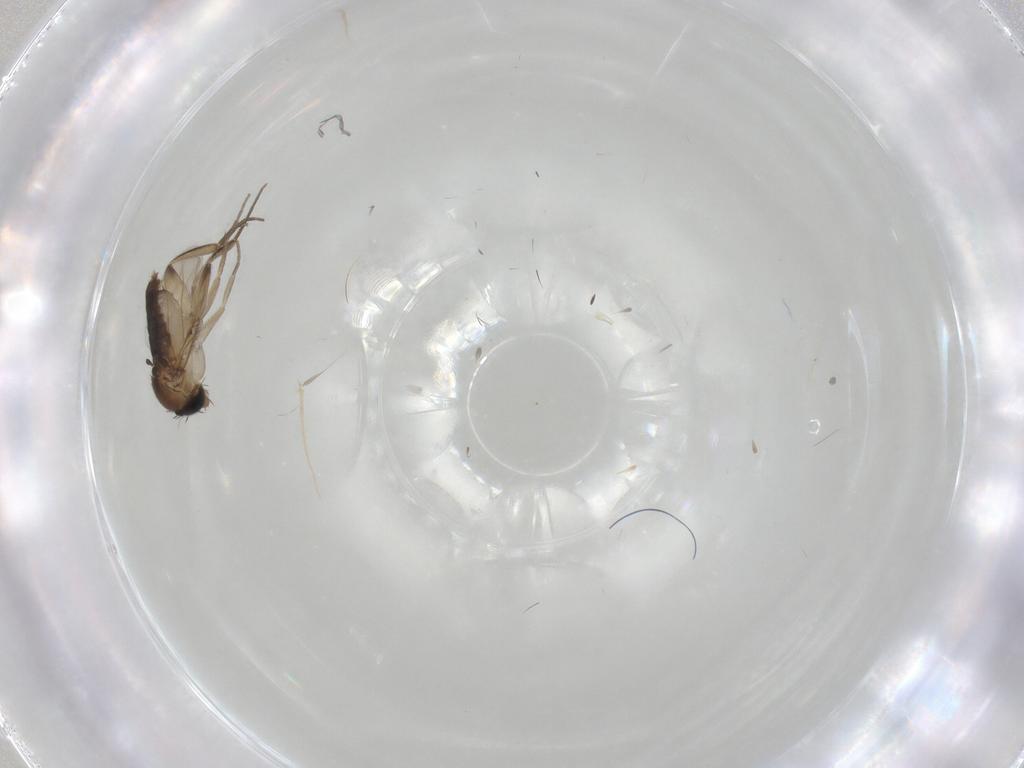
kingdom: Animalia
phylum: Arthropoda
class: Insecta
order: Diptera
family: Phoridae
